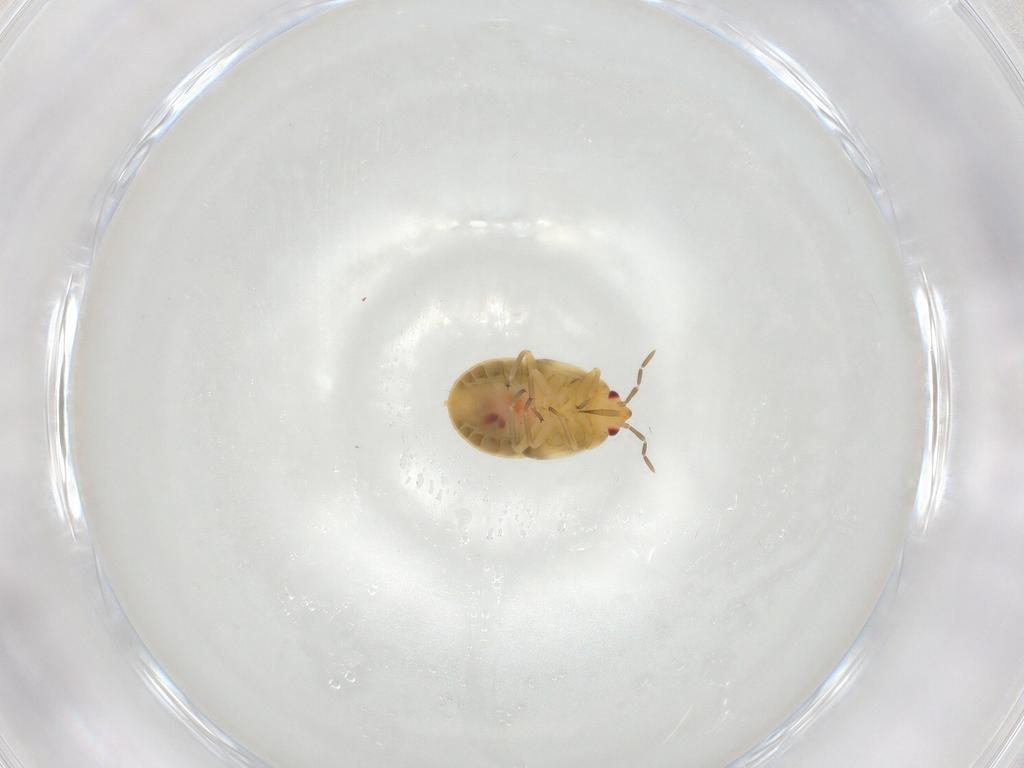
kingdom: Animalia
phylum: Arthropoda
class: Insecta
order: Hemiptera
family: Anthocoridae
